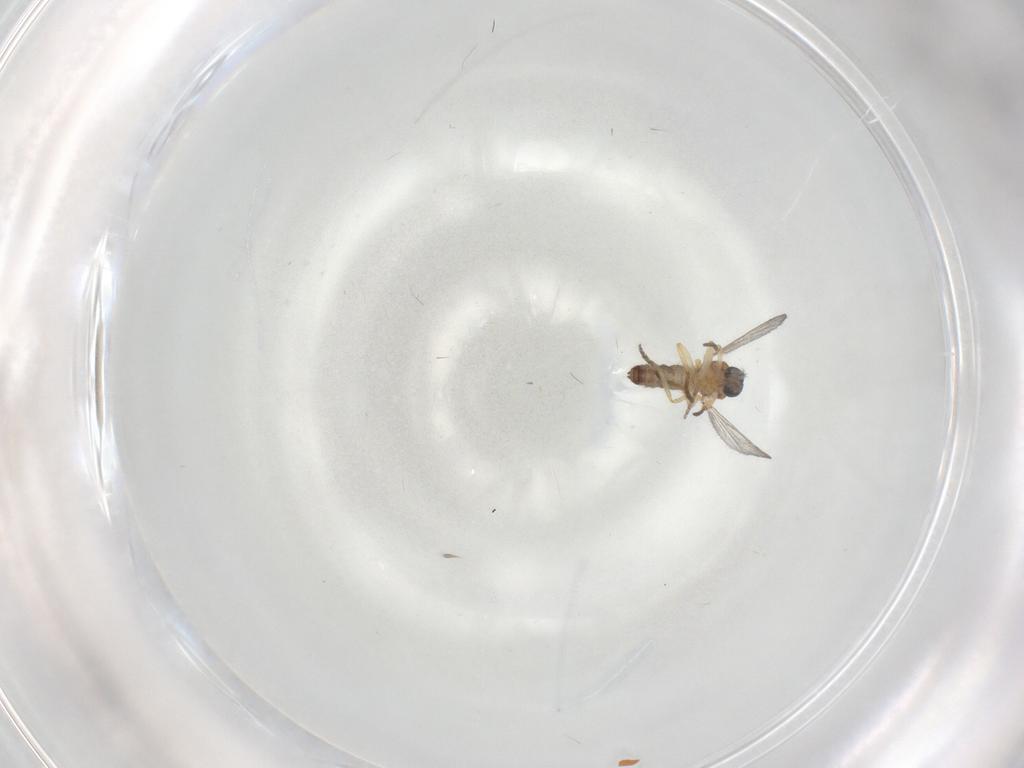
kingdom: Animalia
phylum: Arthropoda
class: Insecta
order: Diptera
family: Ceratopogonidae
